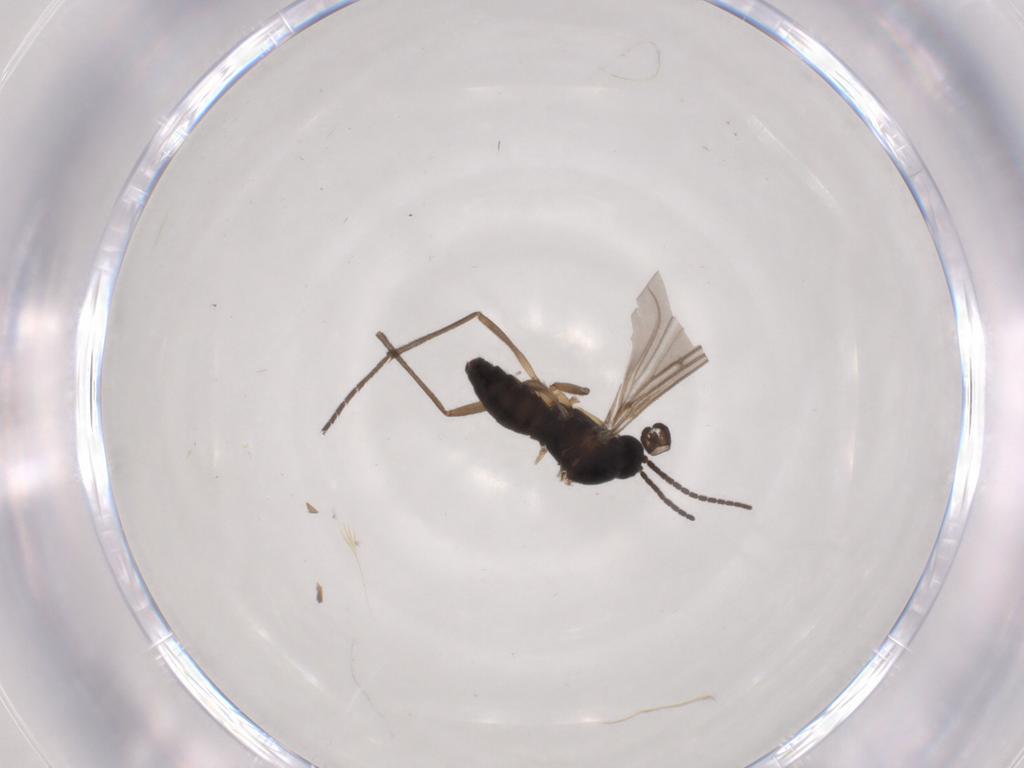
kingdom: Animalia
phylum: Arthropoda
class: Insecta
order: Diptera
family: Sciaridae
